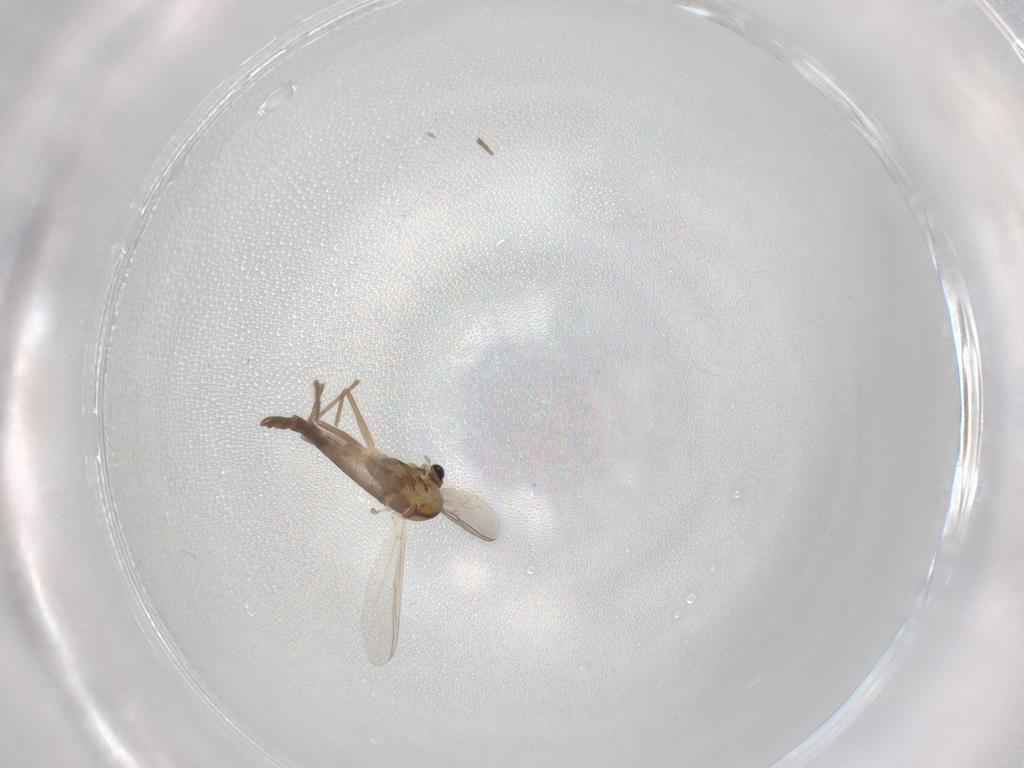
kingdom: Animalia
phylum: Arthropoda
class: Insecta
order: Diptera
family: Chironomidae
